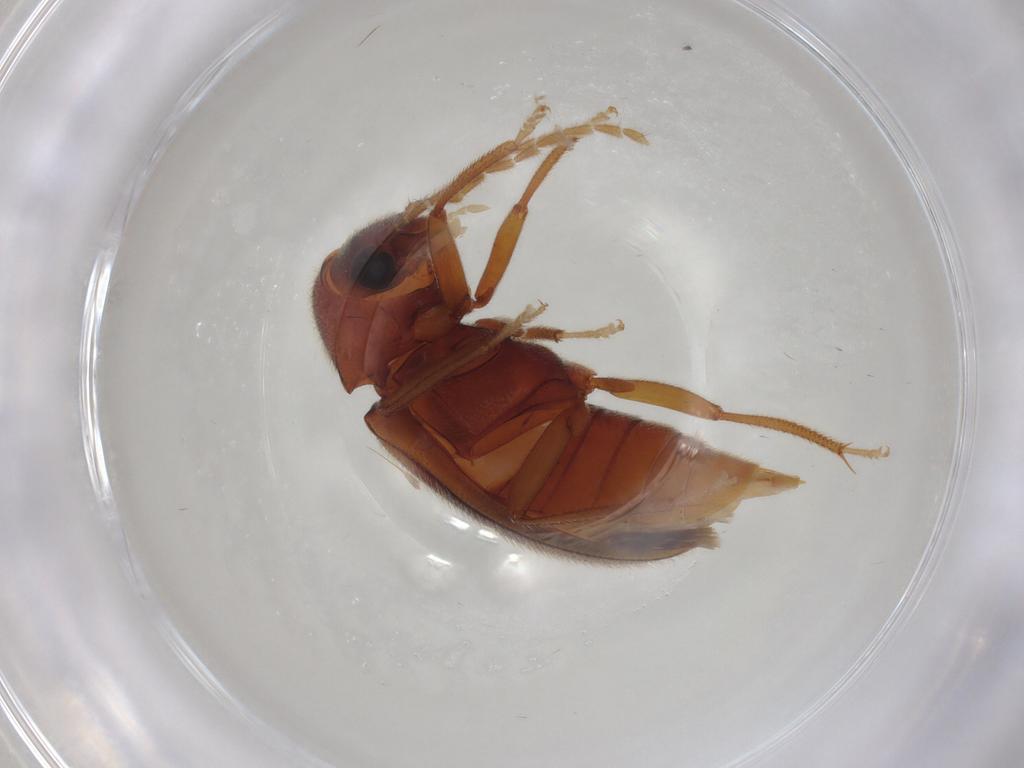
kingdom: Animalia
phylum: Arthropoda
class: Insecta
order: Coleoptera
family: Ptilodactylidae
